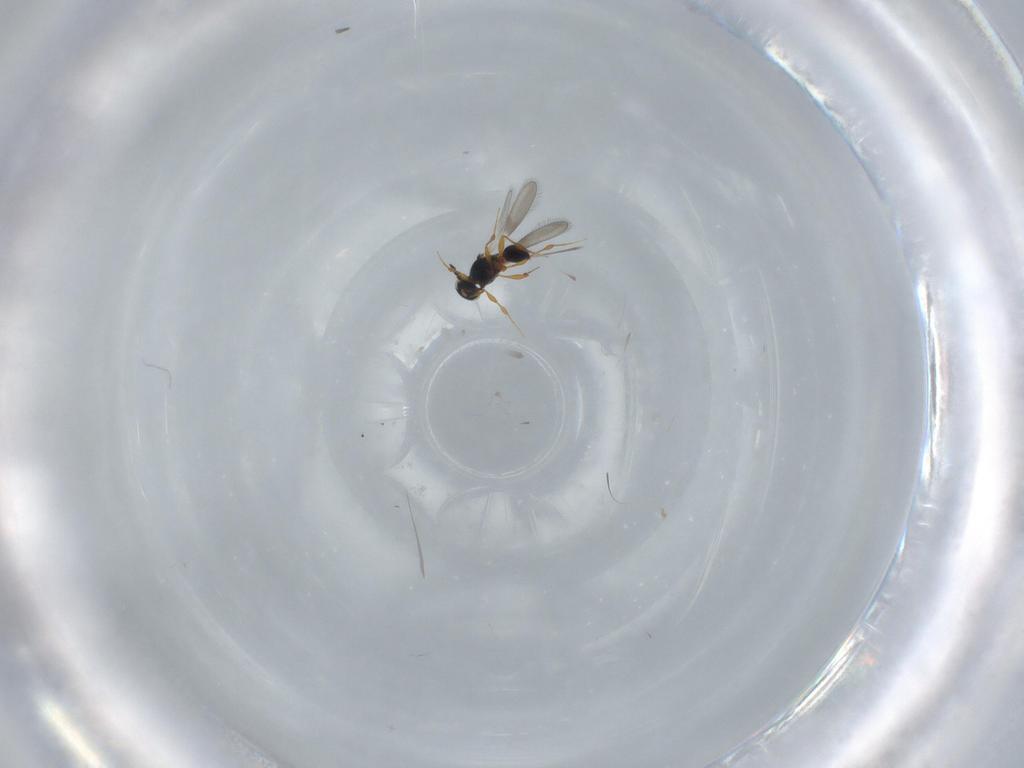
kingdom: Animalia
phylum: Arthropoda
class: Insecta
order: Hymenoptera
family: Platygastridae
